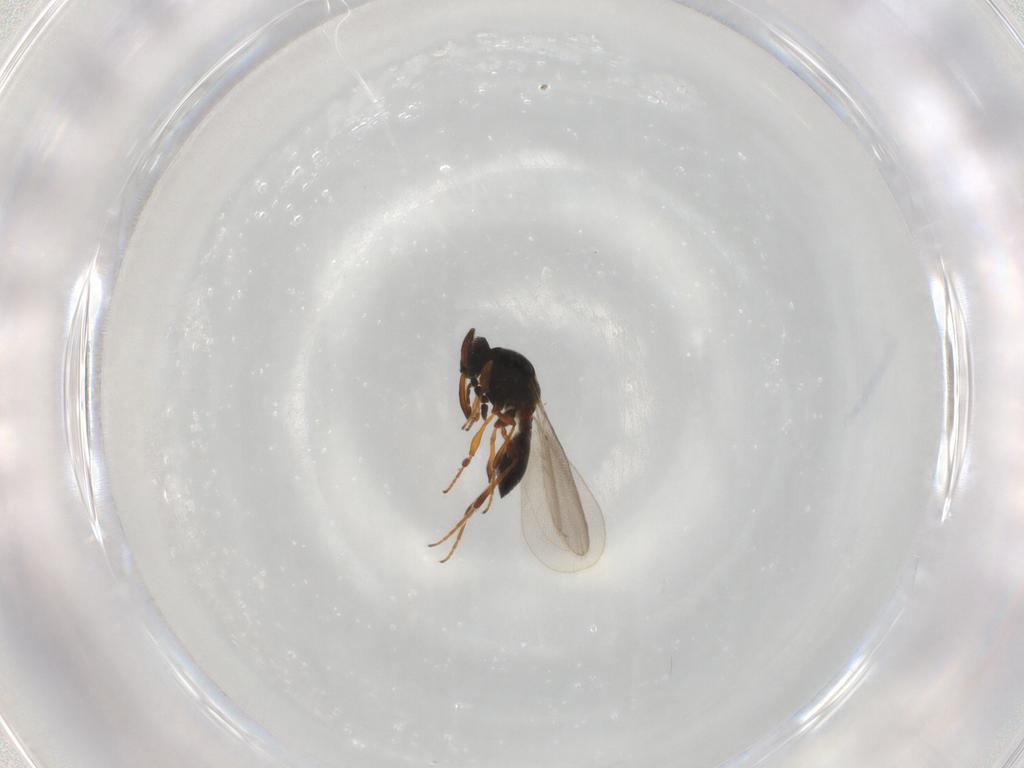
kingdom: Animalia
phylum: Arthropoda
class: Insecta
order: Hymenoptera
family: Platygastridae
